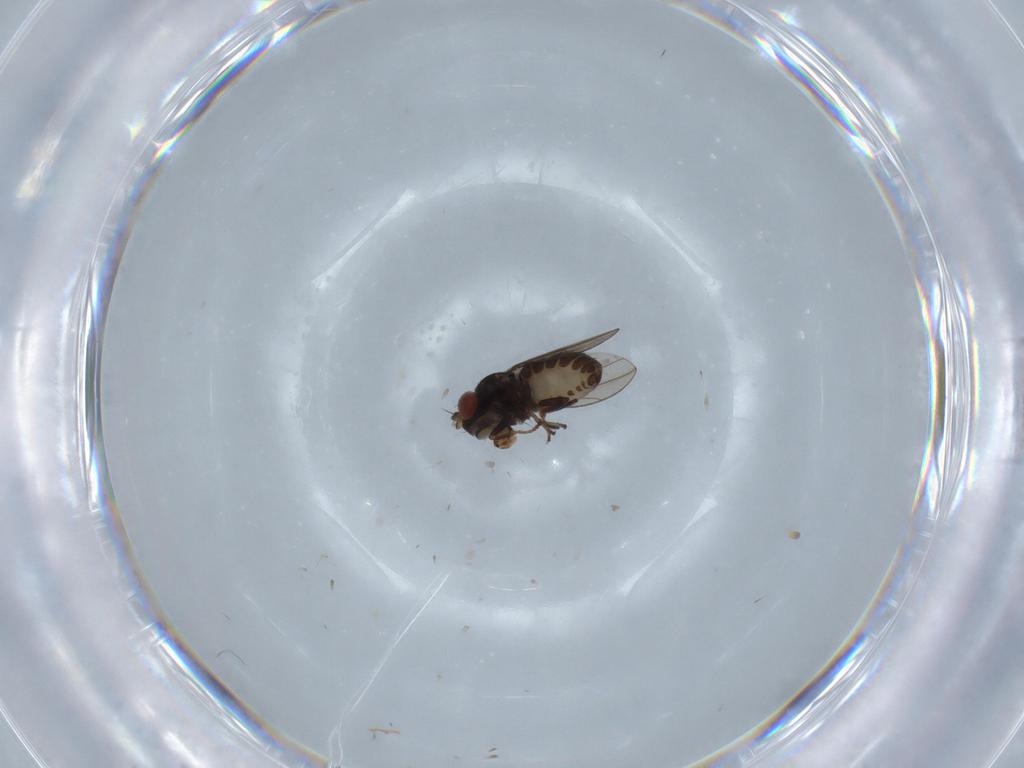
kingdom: Animalia
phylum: Arthropoda
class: Insecta
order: Diptera
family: Ephydridae
